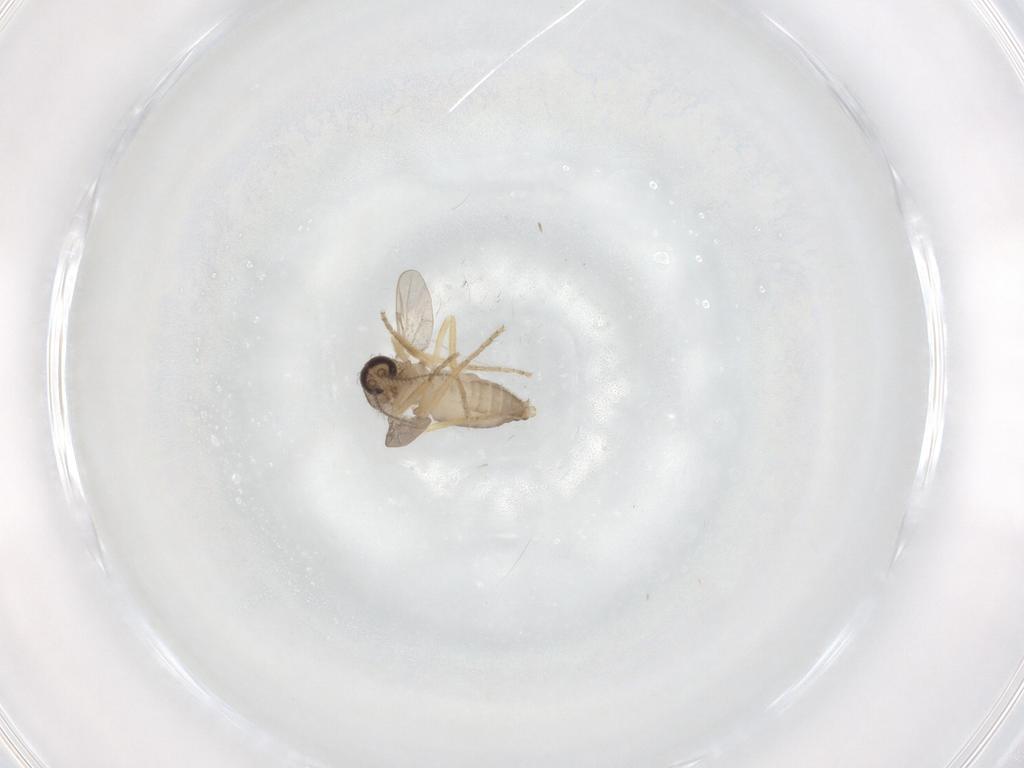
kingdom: Animalia
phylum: Arthropoda
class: Insecta
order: Diptera
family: Ceratopogonidae
